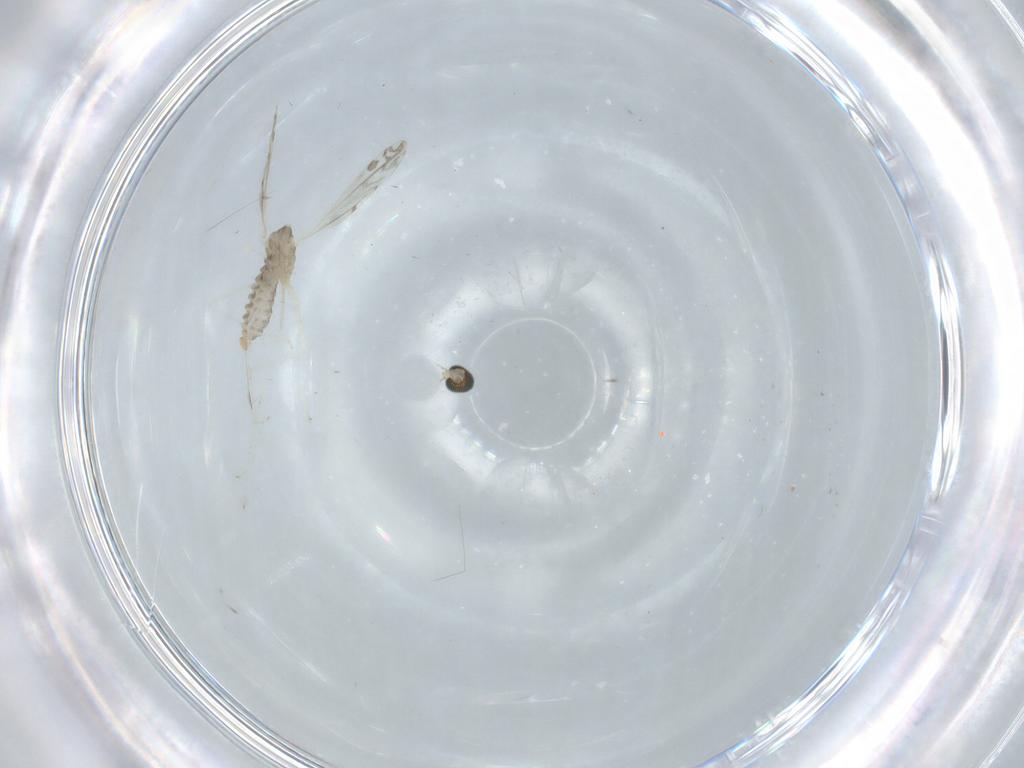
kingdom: Animalia
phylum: Arthropoda
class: Insecta
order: Diptera
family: Cecidomyiidae
